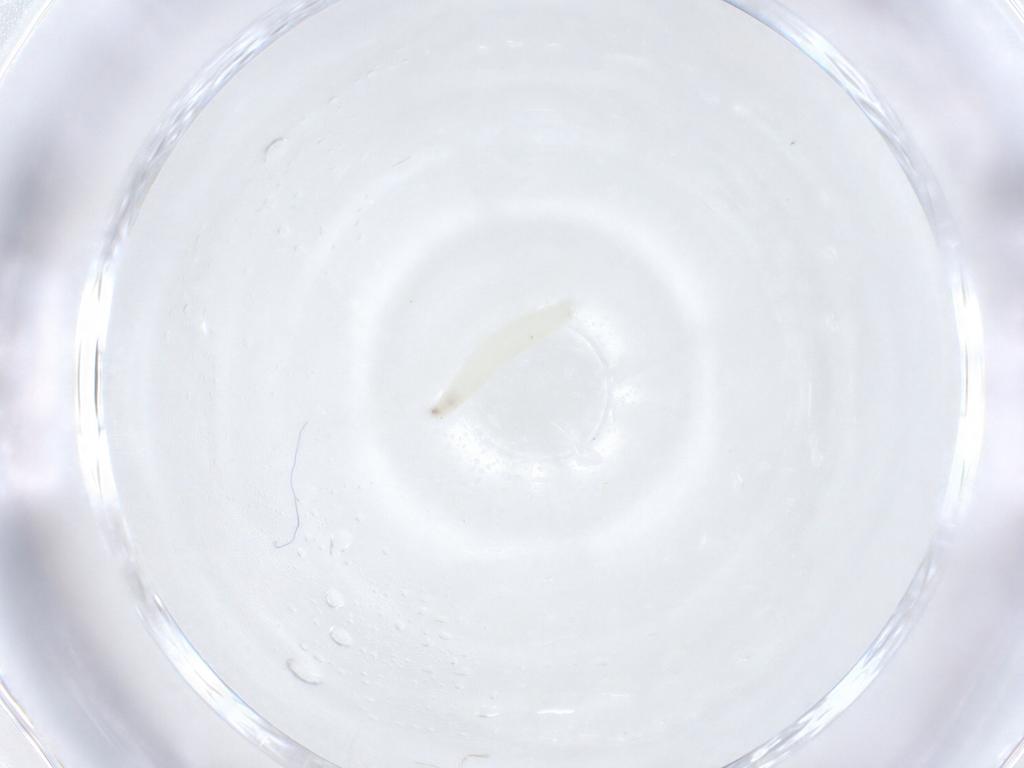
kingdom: Animalia
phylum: Arthropoda
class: Insecta
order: Diptera
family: Sarcophagidae
